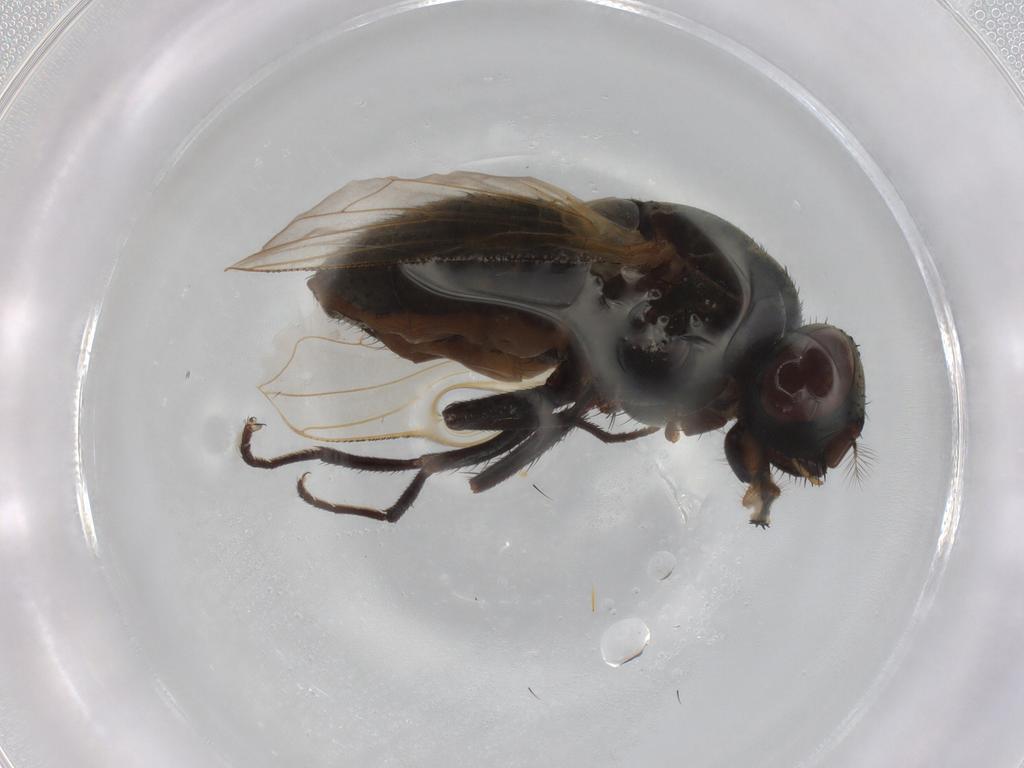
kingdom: Animalia
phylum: Arthropoda
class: Insecta
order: Diptera
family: Muscidae
